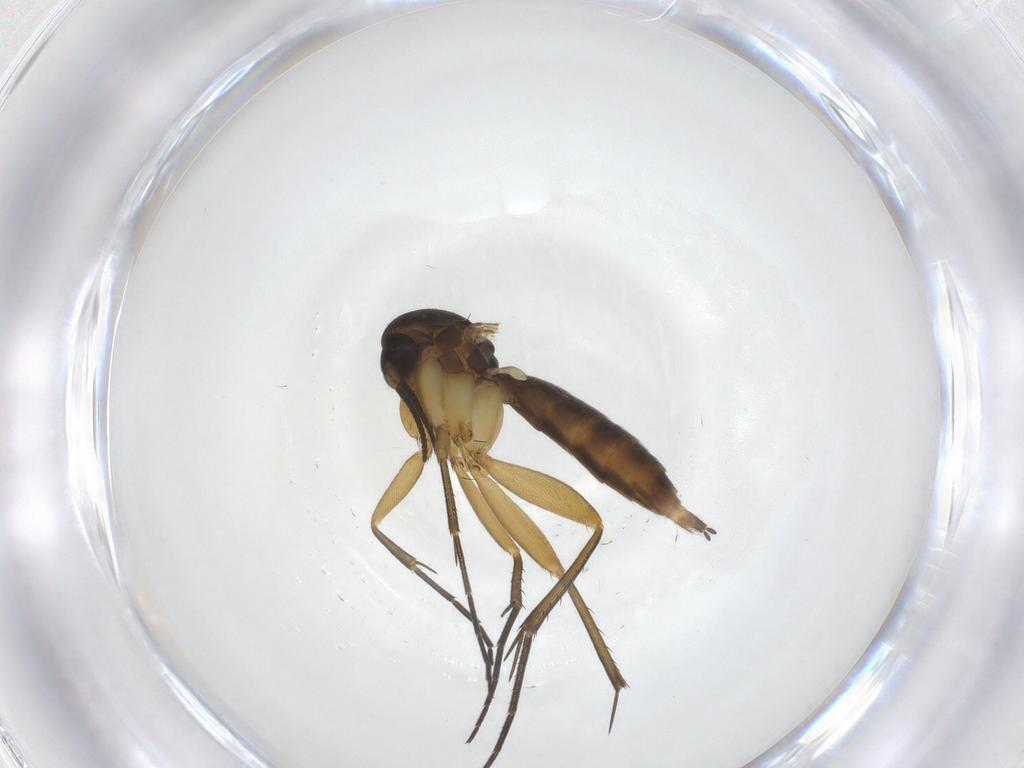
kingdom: Animalia
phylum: Arthropoda
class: Insecta
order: Diptera
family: Mycetophilidae
